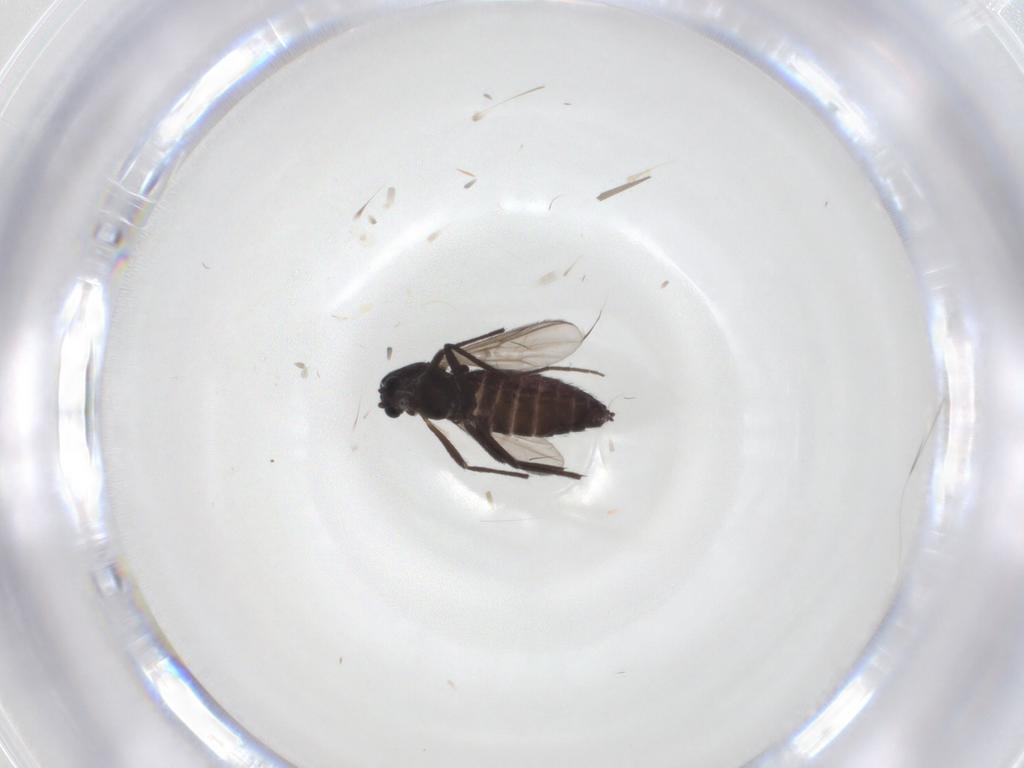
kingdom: Animalia
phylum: Arthropoda
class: Insecta
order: Diptera
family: Chironomidae
